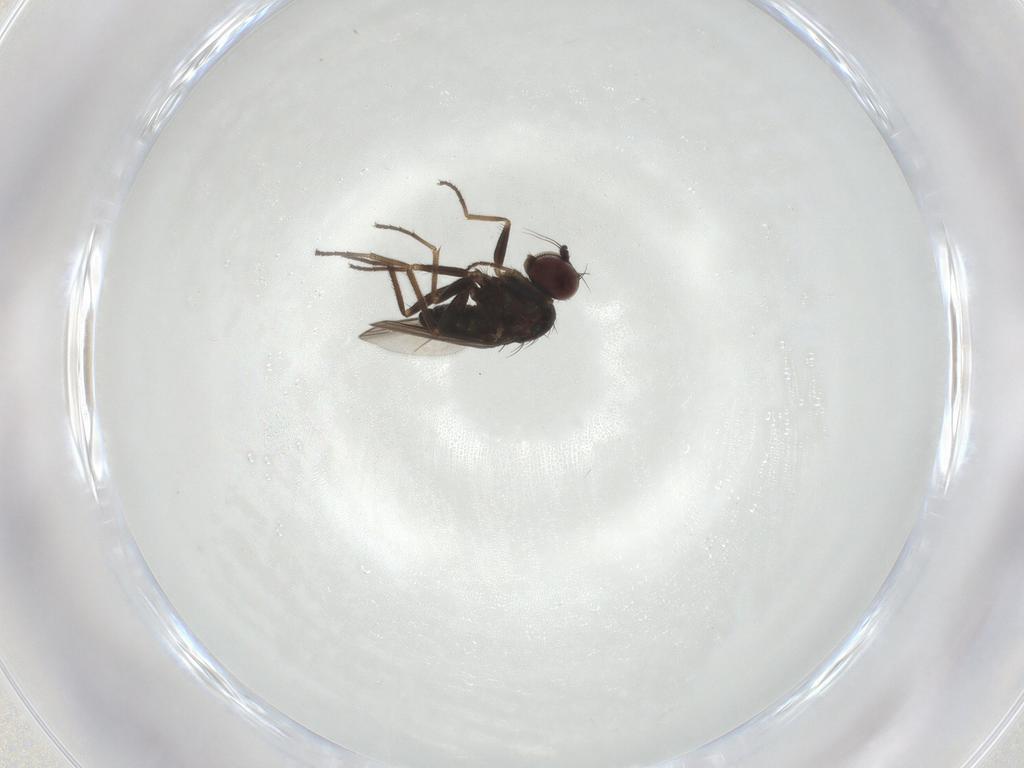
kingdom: Animalia
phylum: Arthropoda
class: Insecta
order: Diptera
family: Dolichopodidae
